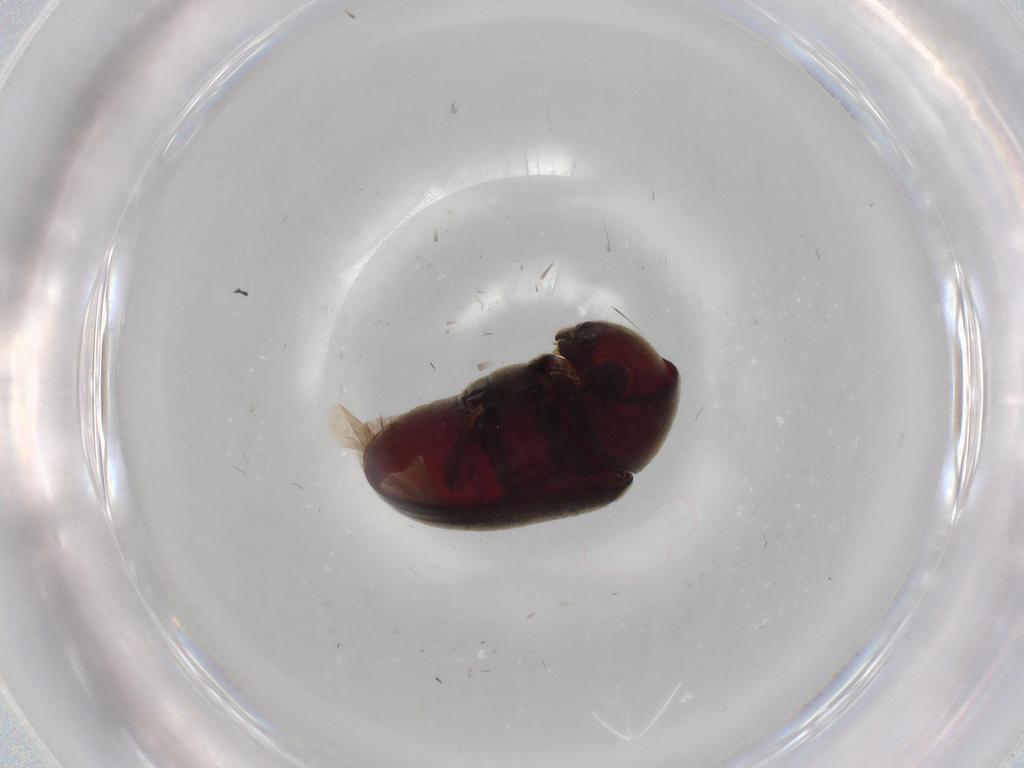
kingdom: Animalia
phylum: Arthropoda
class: Insecta
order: Coleoptera
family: Ptinidae
